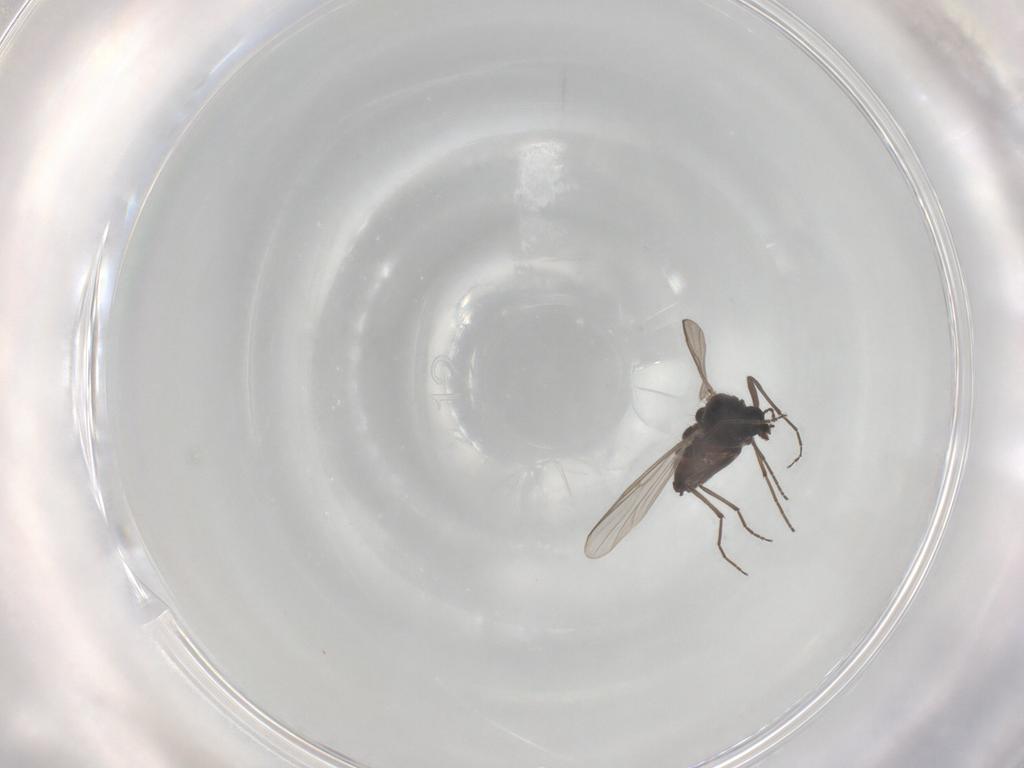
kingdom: Animalia
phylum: Arthropoda
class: Insecta
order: Diptera
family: Chironomidae
